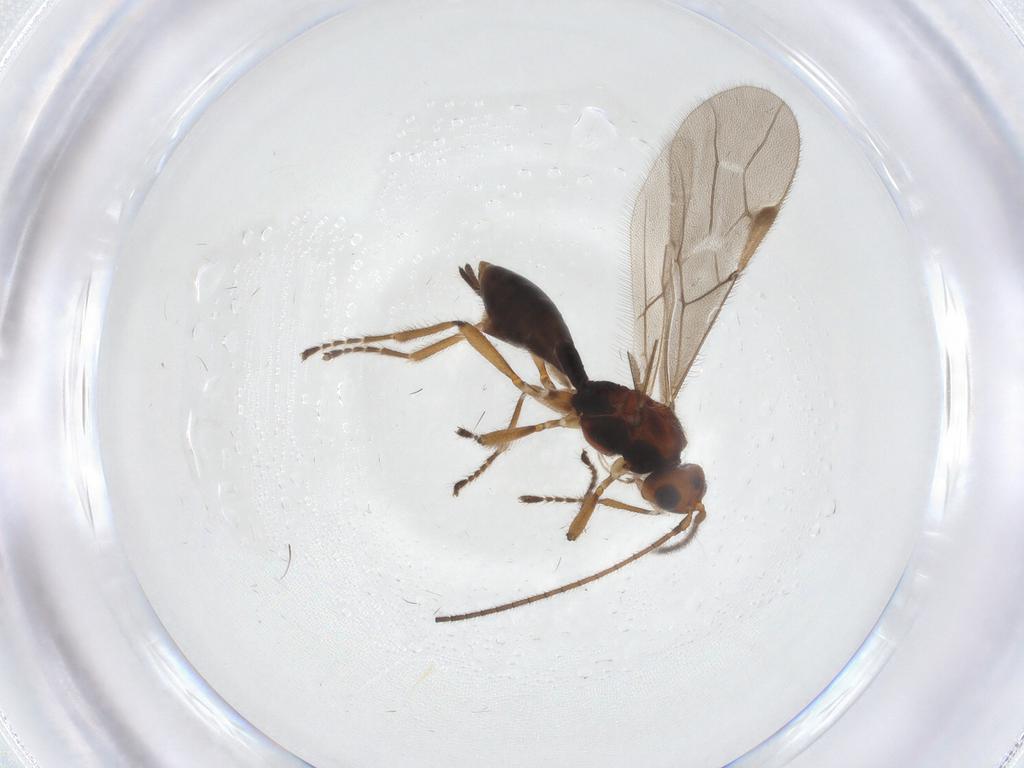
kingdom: Animalia
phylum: Arthropoda
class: Insecta
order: Hymenoptera
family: Braconidae
